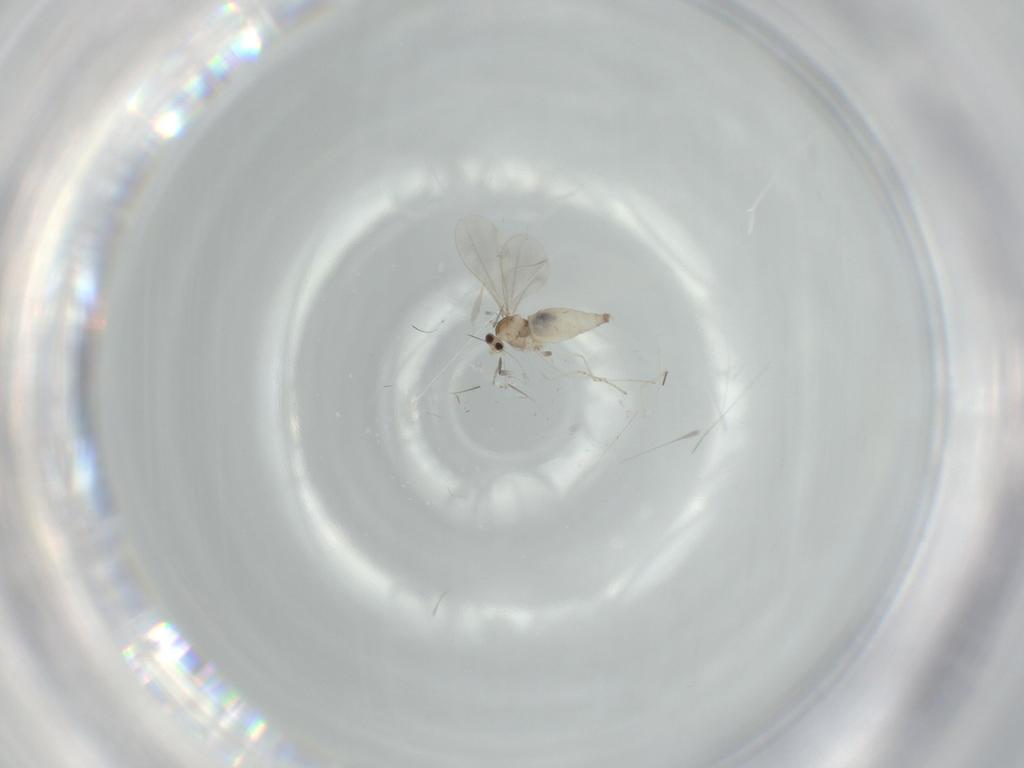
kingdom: Animalia
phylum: Arthropoda
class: Insecta
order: Diptera
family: Cecidomyiidae
